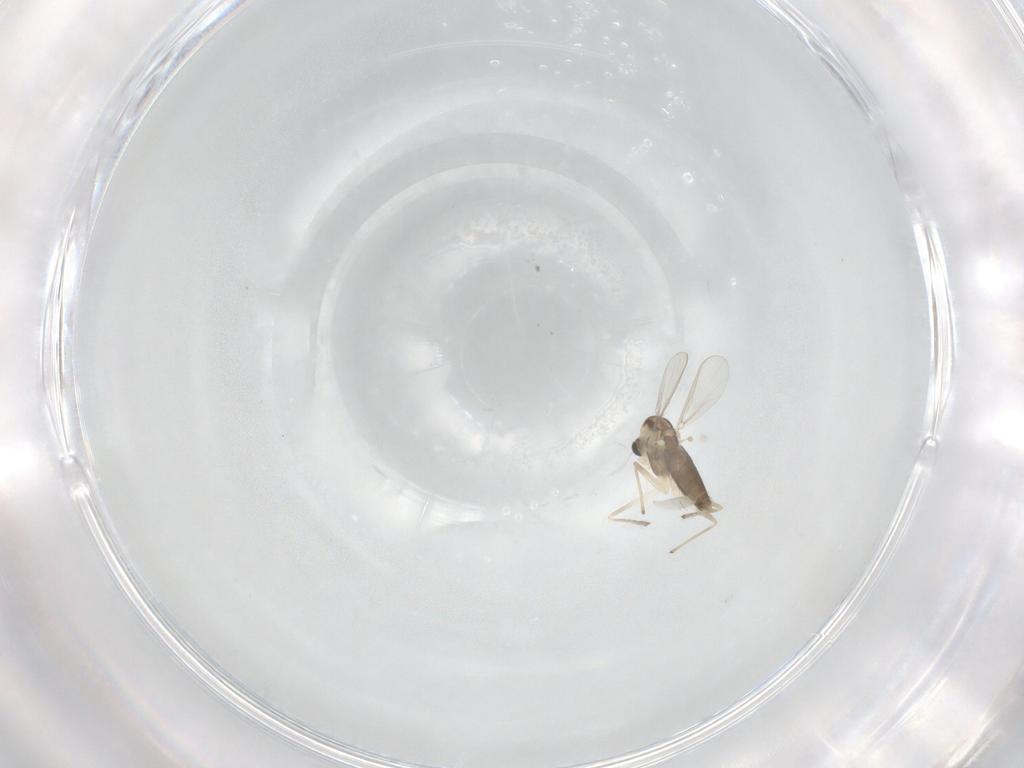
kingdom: Animalia
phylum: Arthropoda
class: Insecta
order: Diptera
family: Chironomidae
